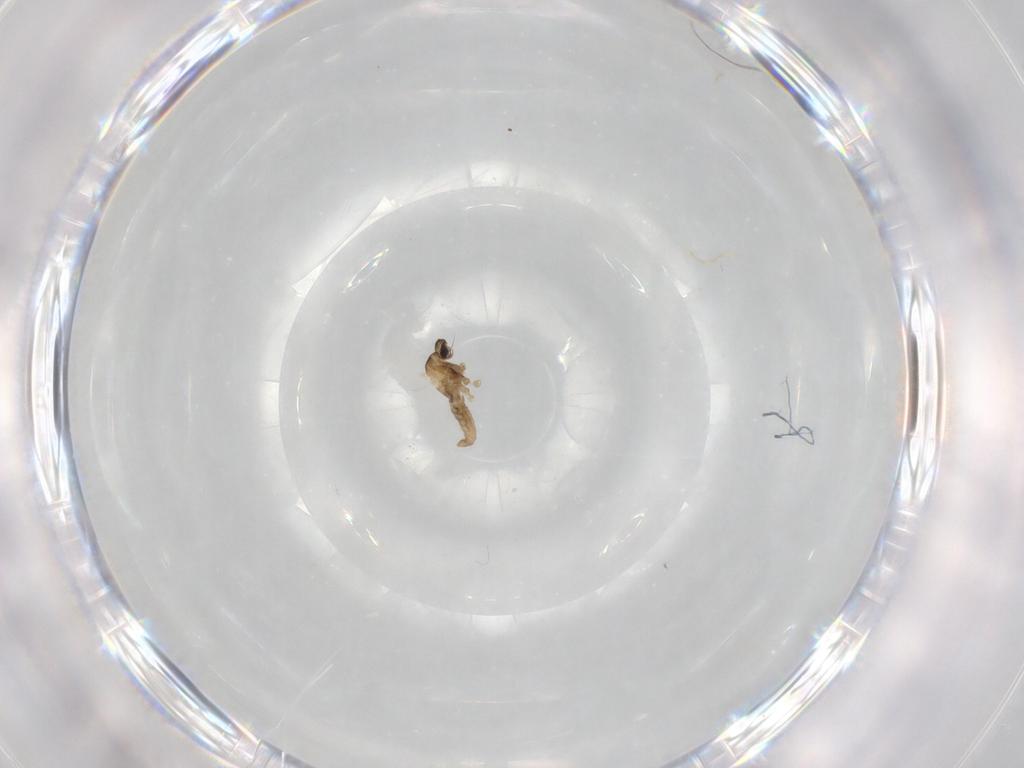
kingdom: Animalia
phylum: Arthropoda
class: Insecta
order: Diptera
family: Cecidomyiidae
